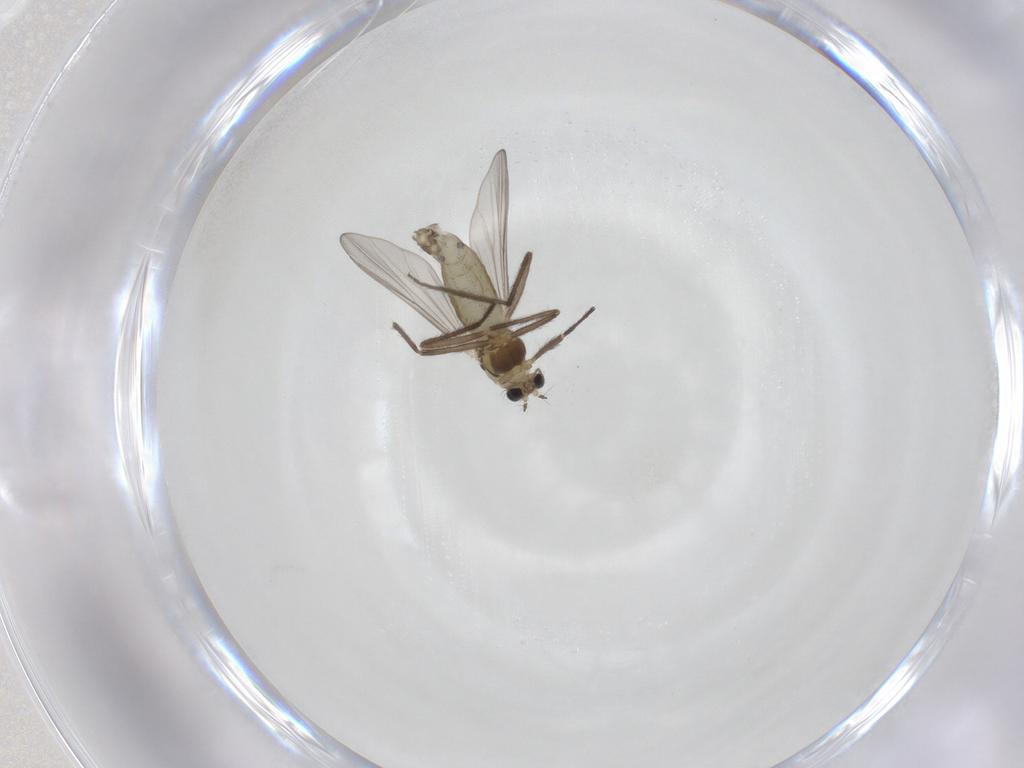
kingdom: Animalia
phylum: Arthropoda
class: Insecta
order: Diptera
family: Chironomidae
